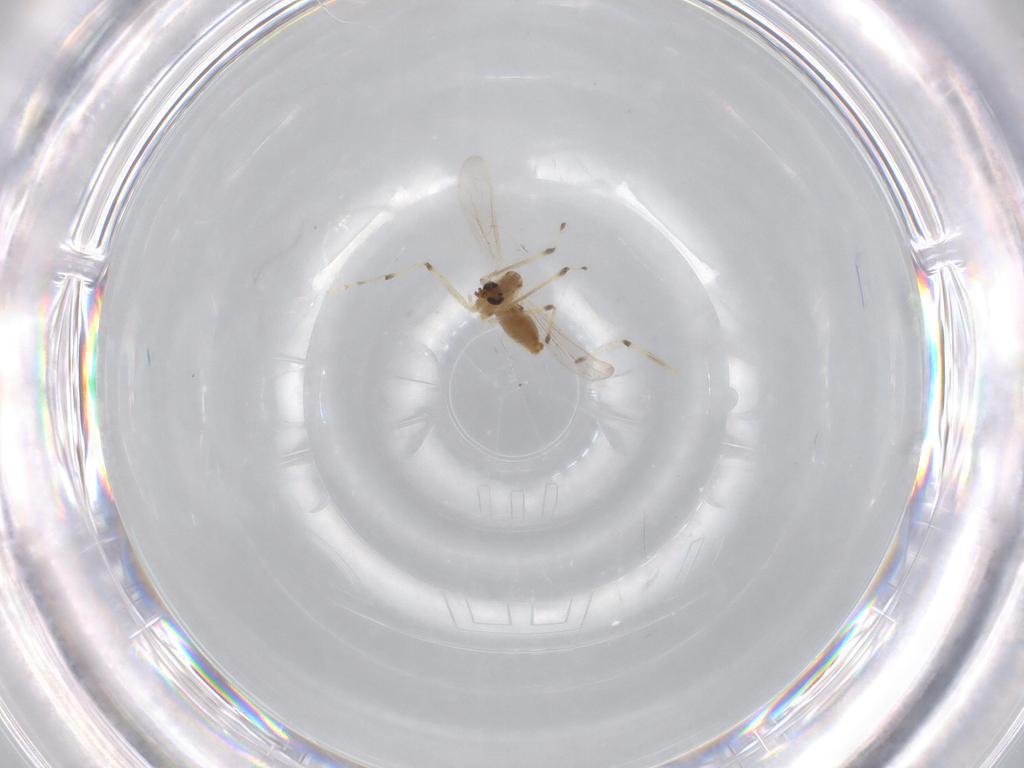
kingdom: Animalia
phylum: Arthropoda
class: Insecta
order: Diptera
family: Chironomidae
